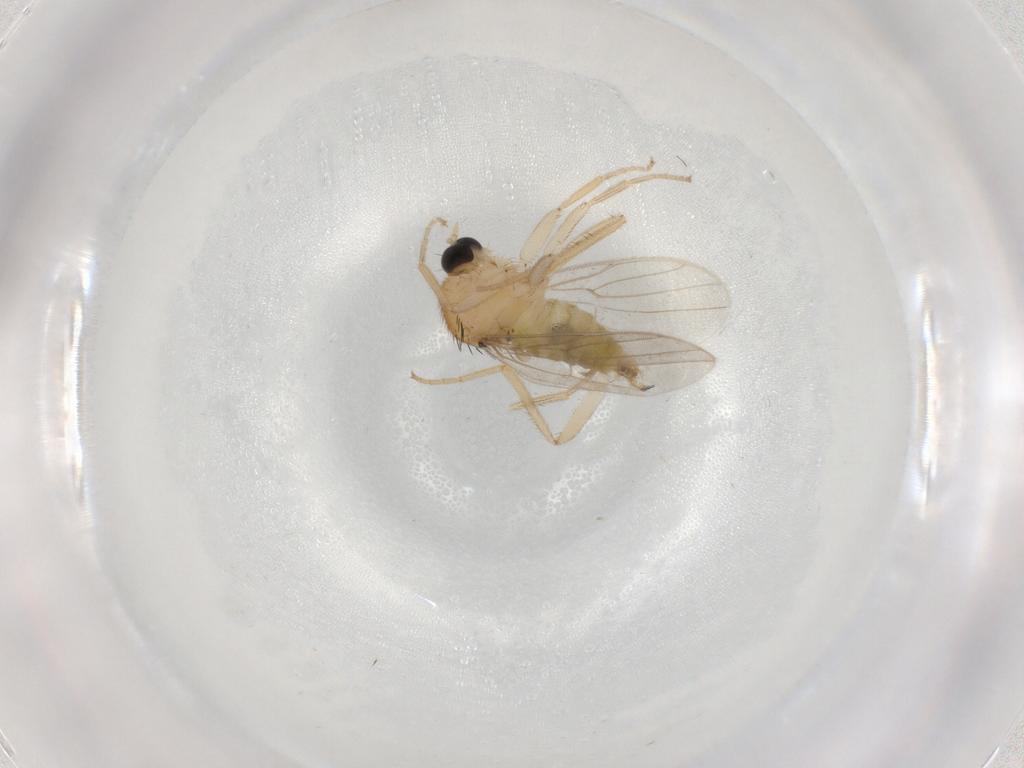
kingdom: Animalia
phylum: Arthropoda
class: Insecta
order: Diptera
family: Hybotidae
